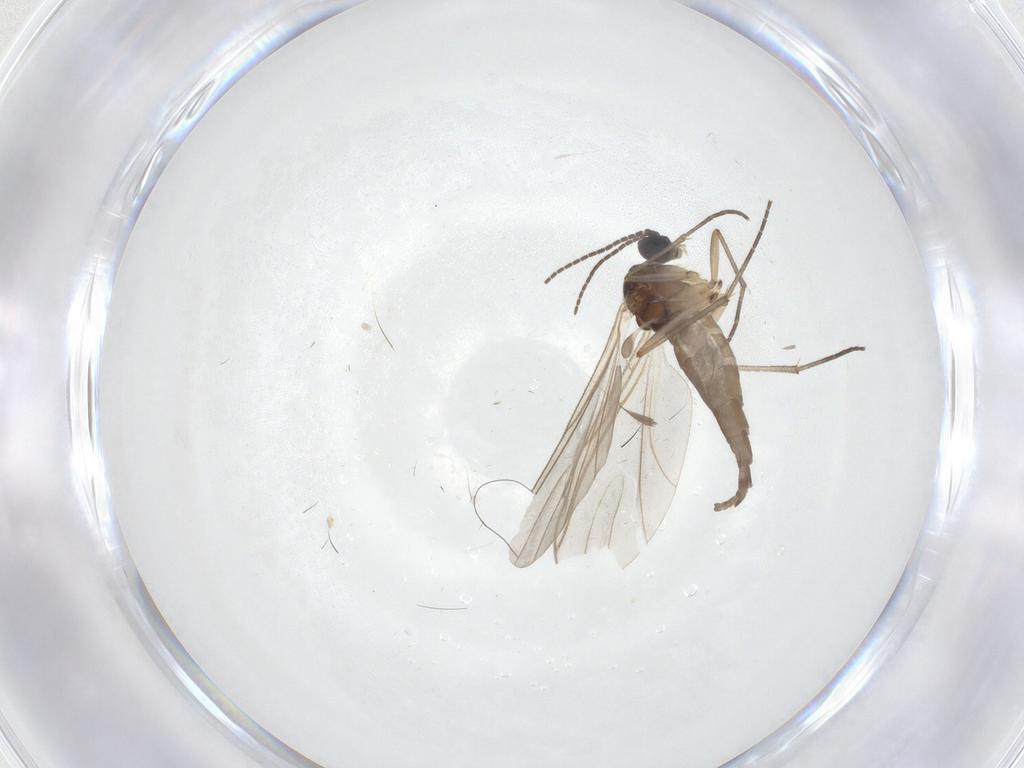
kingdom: Animalia
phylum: Arthropoda
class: Insecta
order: Diptera
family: Sciaridae
